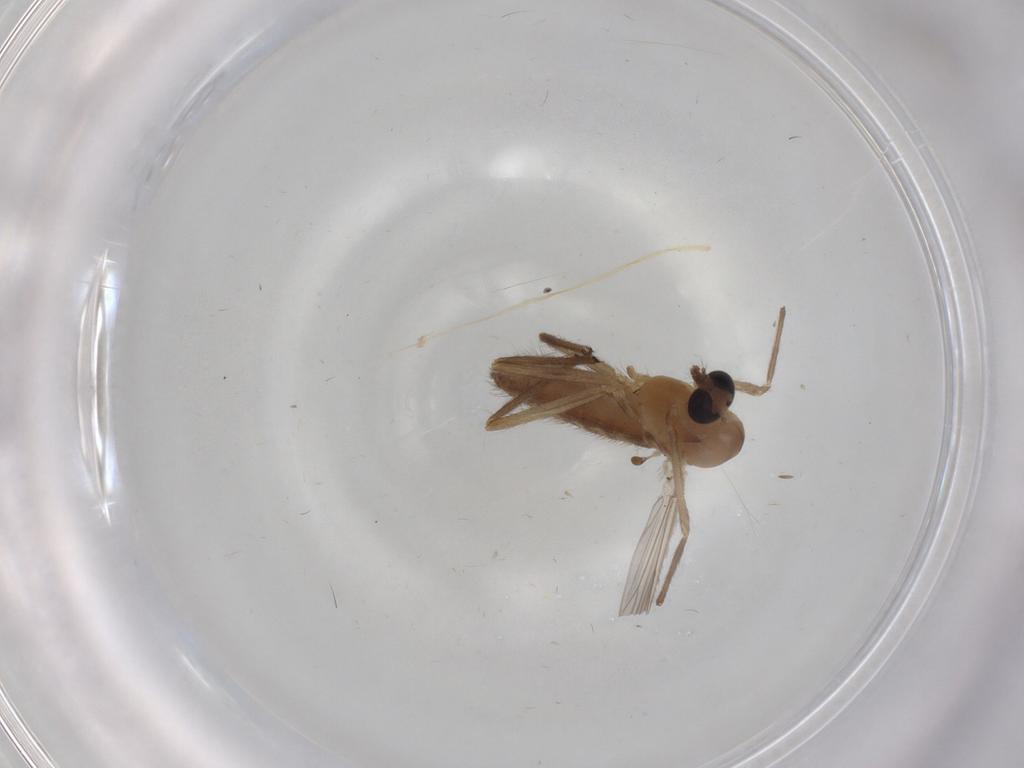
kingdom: Animalia
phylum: Arthropoda
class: Insecta
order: Diptera
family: Chironomidae
